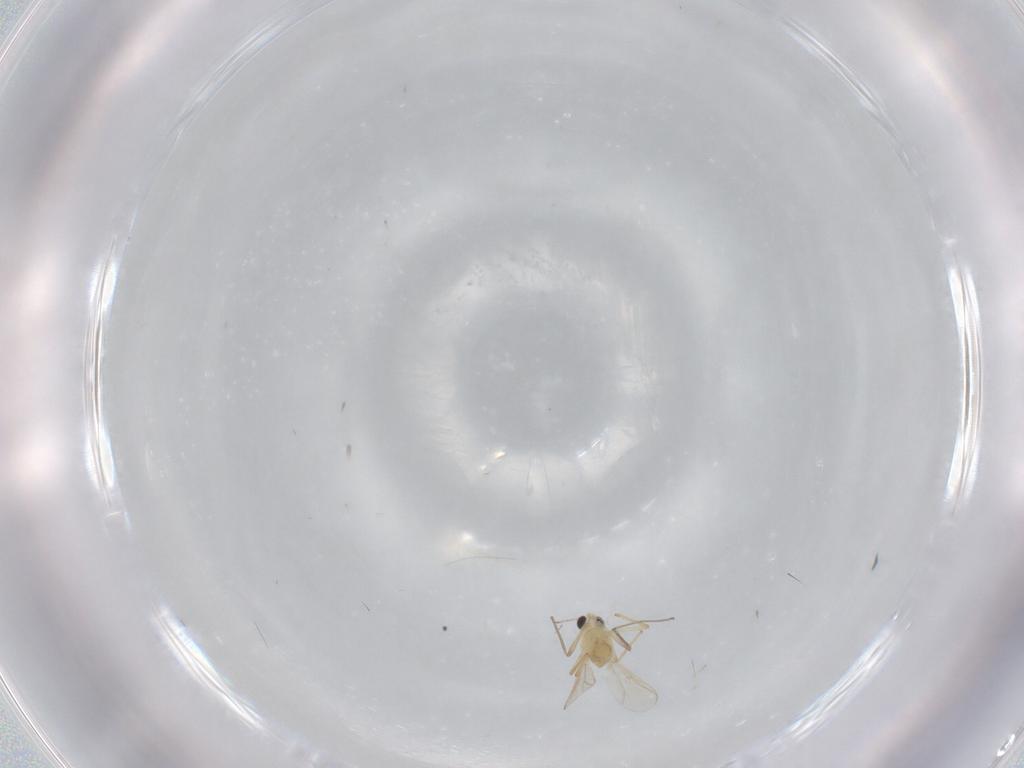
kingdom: Animalia
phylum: Arthropoda
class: Insecta
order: Diptera
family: Chironomidae
